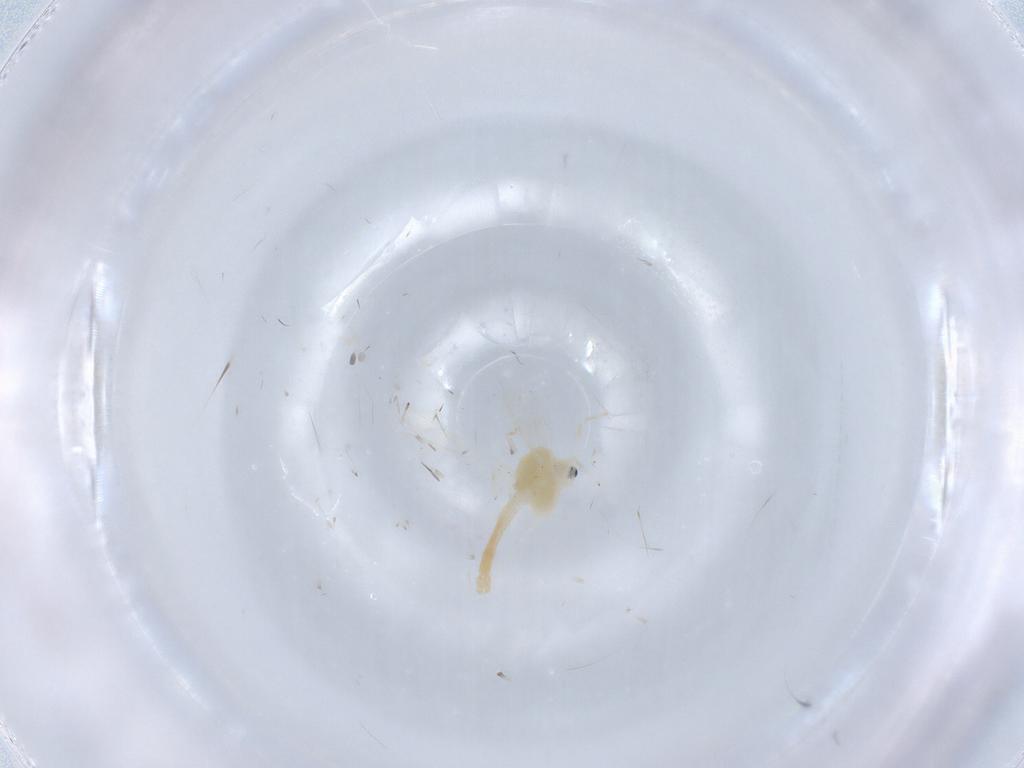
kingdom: Animalia
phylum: Arthropoda
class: Insecta
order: Diptera
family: Chironomidae
